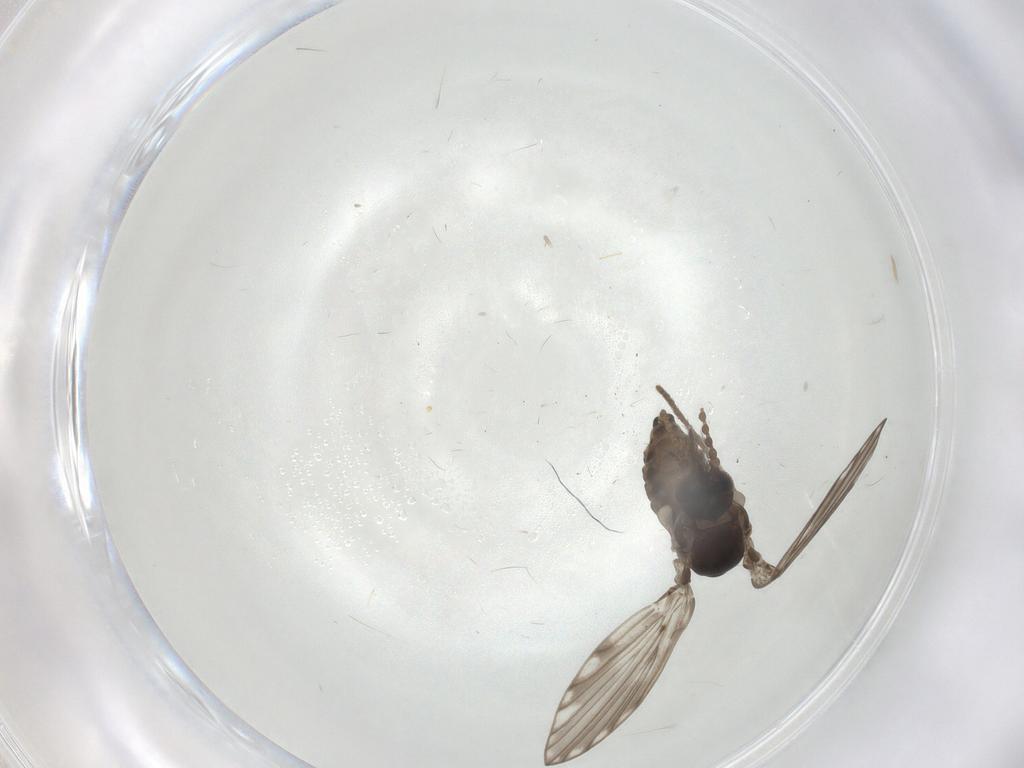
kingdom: Animalia
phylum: Arthropoda
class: Insecta
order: Diptera
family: Psychodidae
